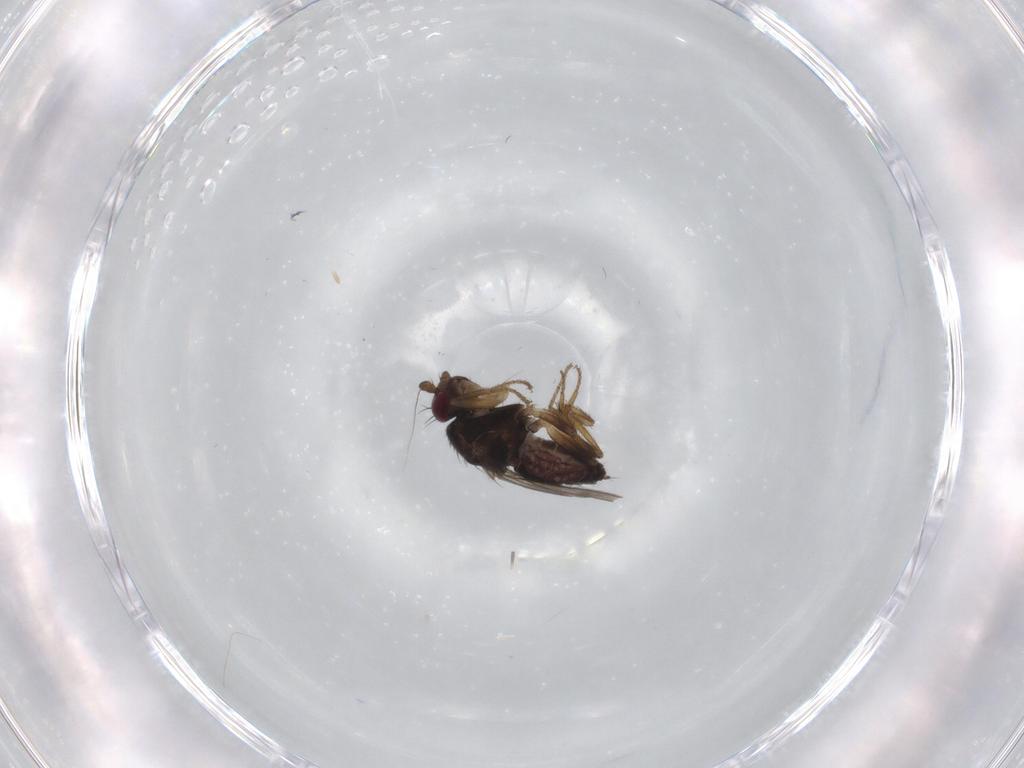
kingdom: Animalia
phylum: Arthropoda
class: Insecta
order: Diptera
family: Sphaeroceridae
